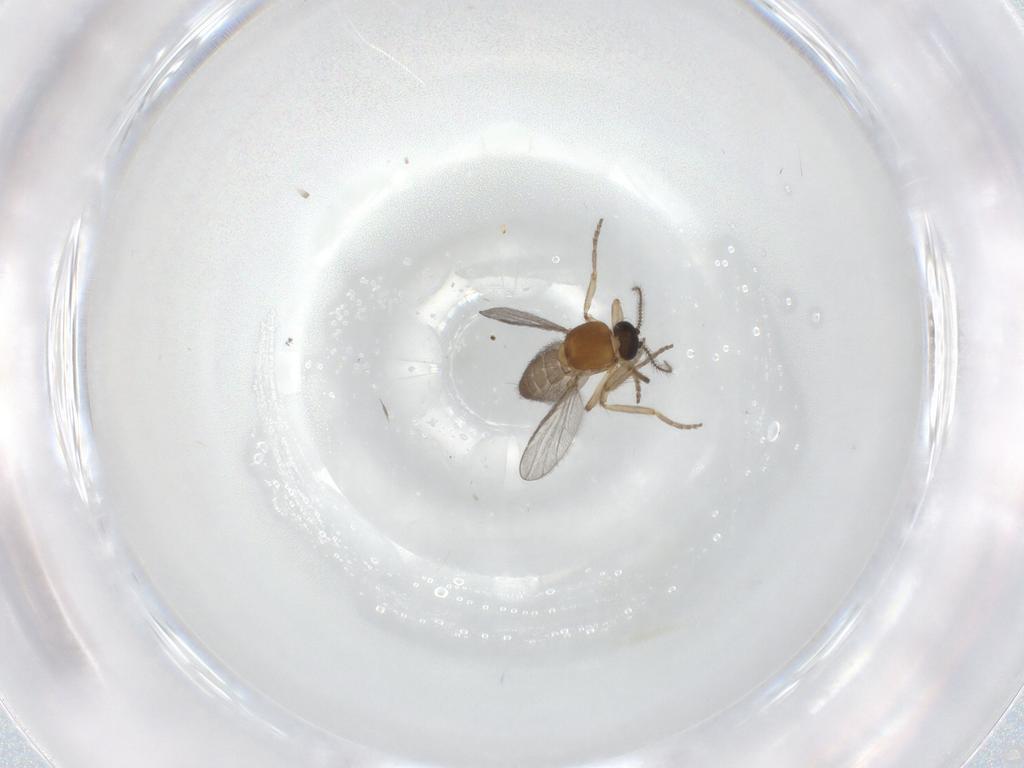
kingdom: Animalia
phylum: Arthropoda
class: Insecta
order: Diptera
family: Ceratopogonidae
